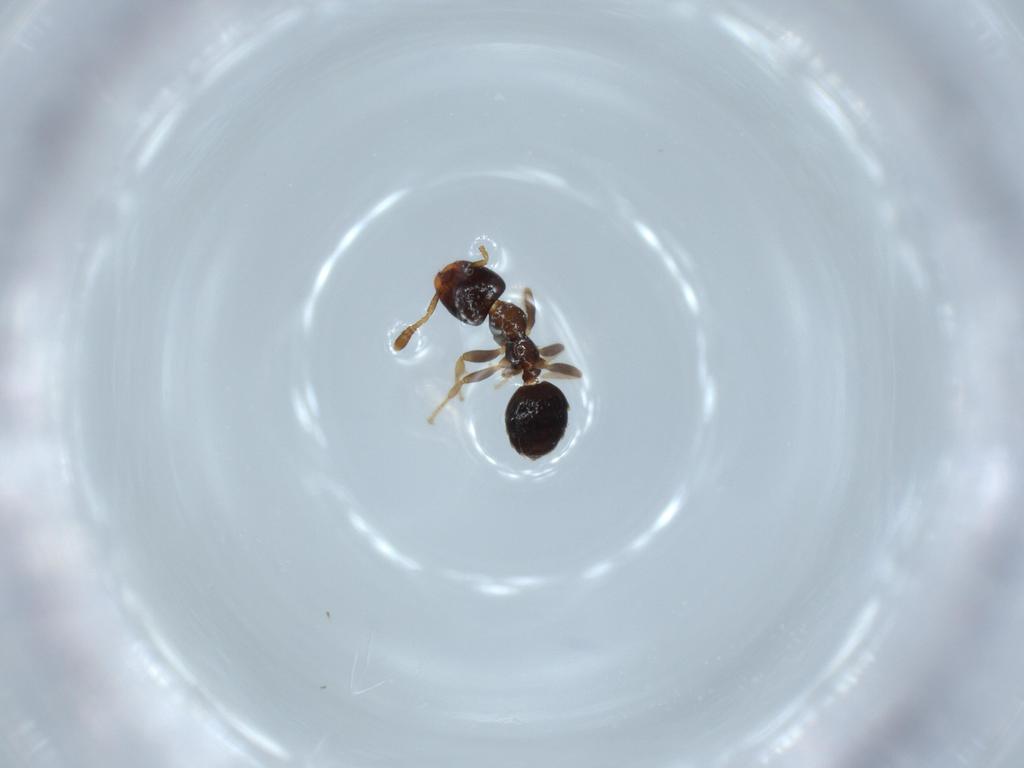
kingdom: Animalia
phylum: Arthropoda
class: Insecta
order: Hymenoptera
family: Formicidae
